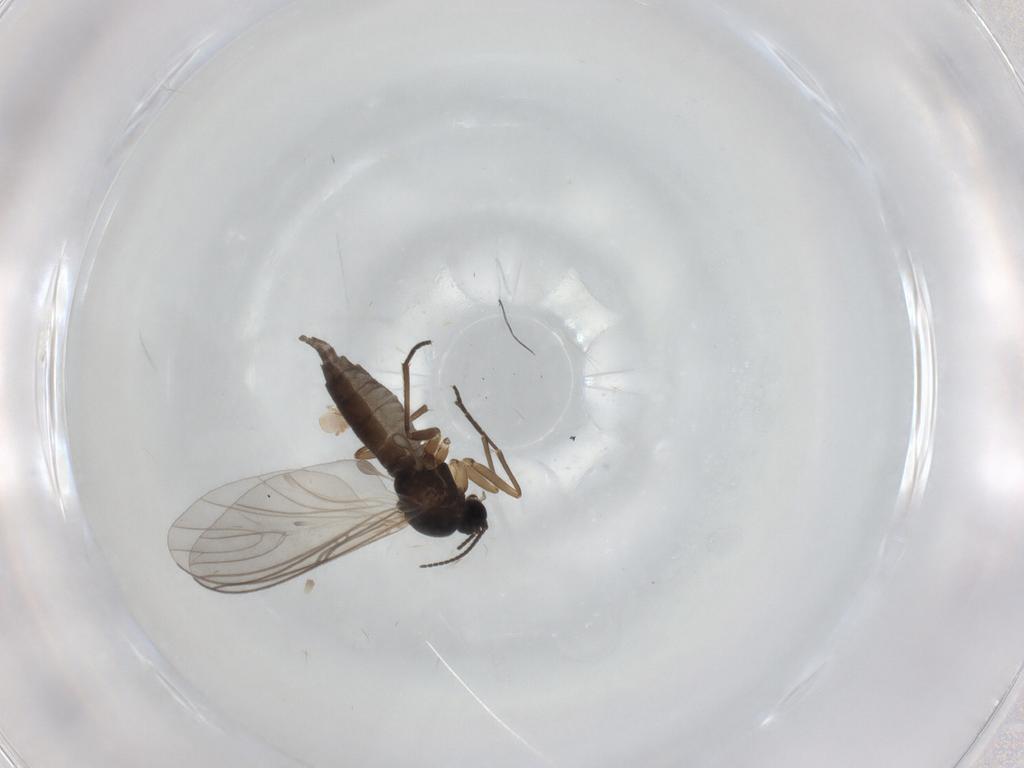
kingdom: Animalia
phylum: Arthropoda
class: Insecta
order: Diptera
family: Sciaridae
